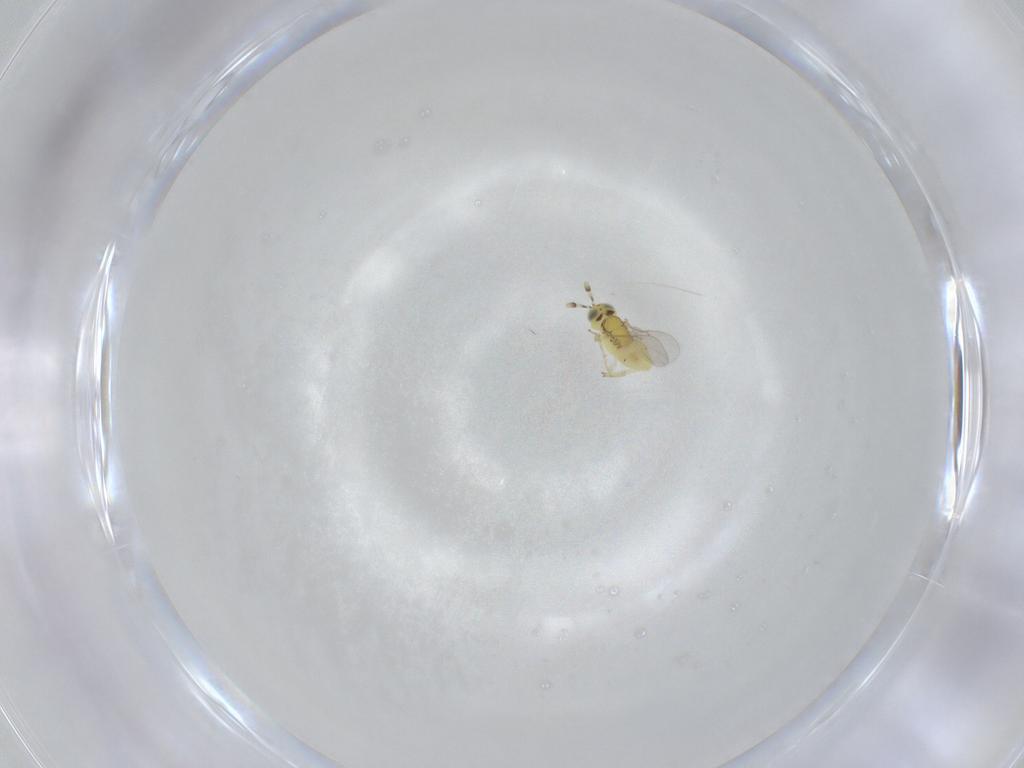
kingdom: Animalia
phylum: Arthropoda
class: Insecta
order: Hymenoptera
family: Encyrtidae
